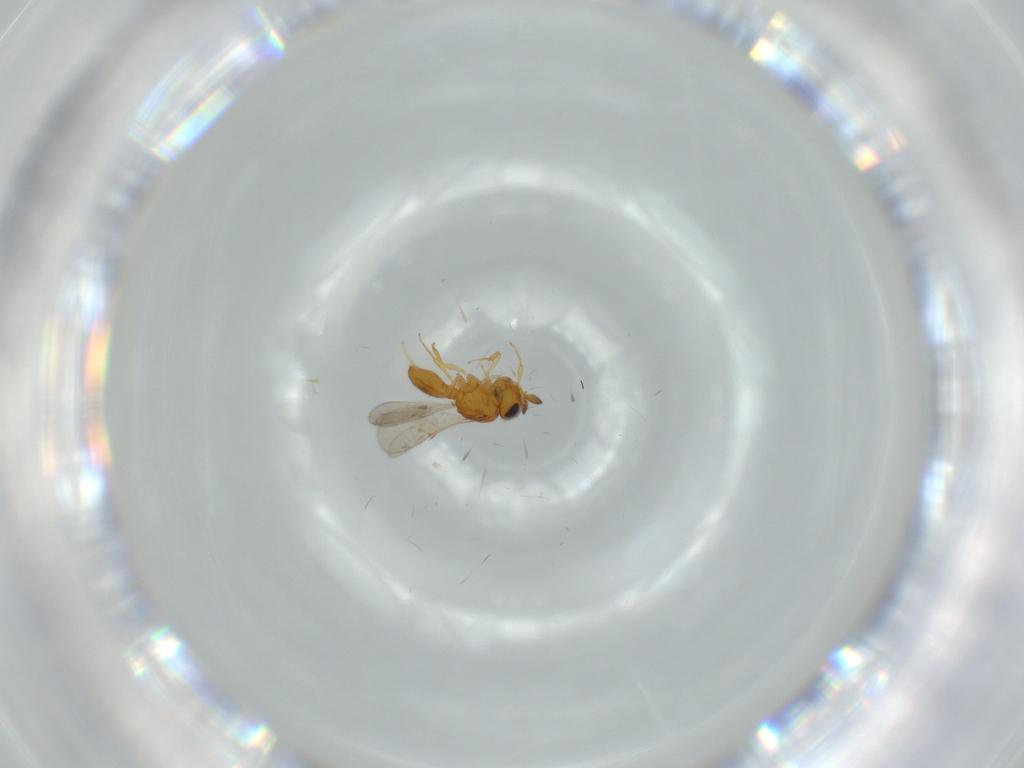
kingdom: Animalia
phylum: Arthropoda
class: Insecta
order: Hymenoptera
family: Scelionidae
